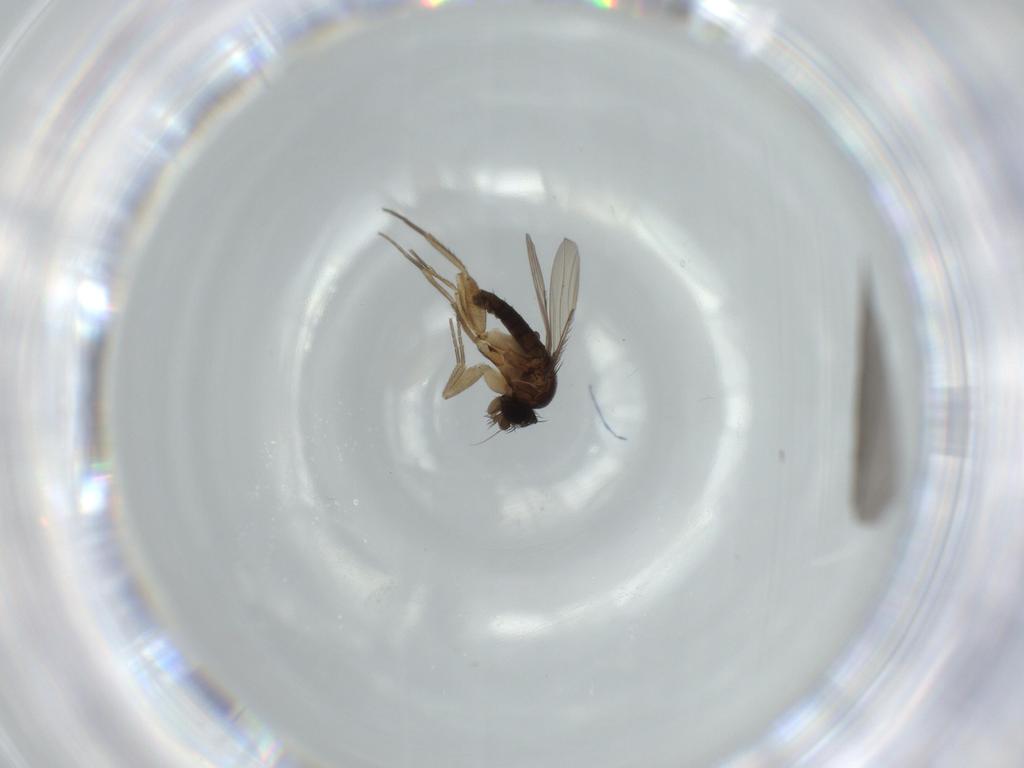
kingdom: Animalia
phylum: Arthropoda
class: Insecta
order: Diptera
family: Phoridae
